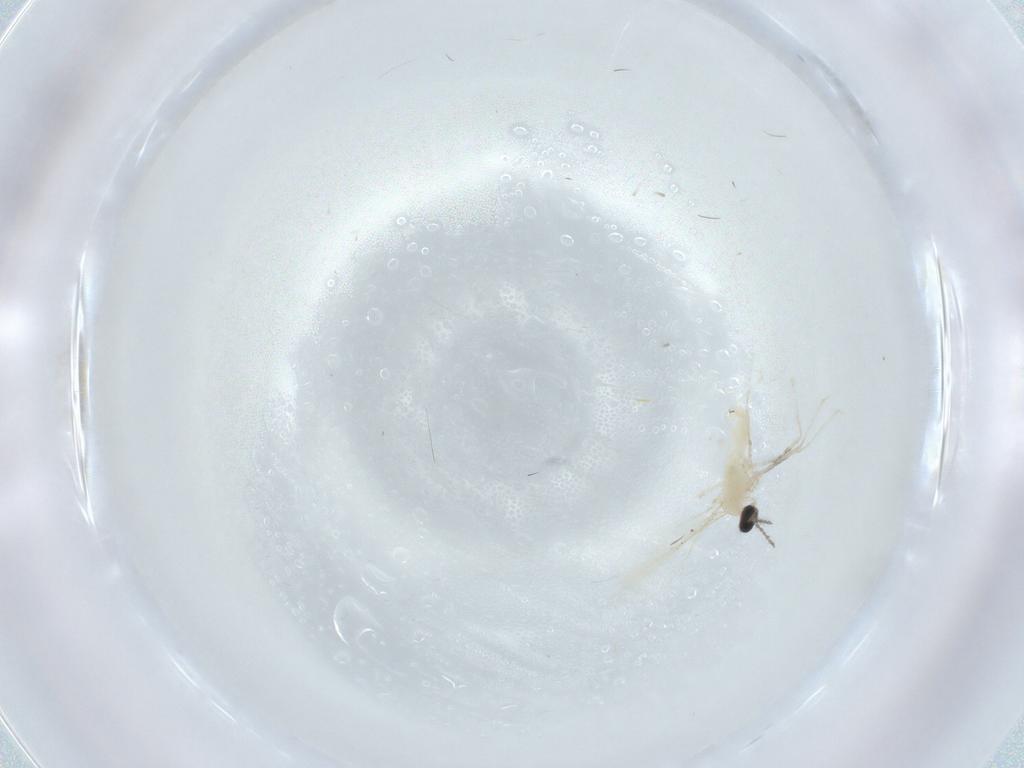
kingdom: Animalia
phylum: Arthropoda
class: Insecta
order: Diptera
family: Cecidomyiidae
